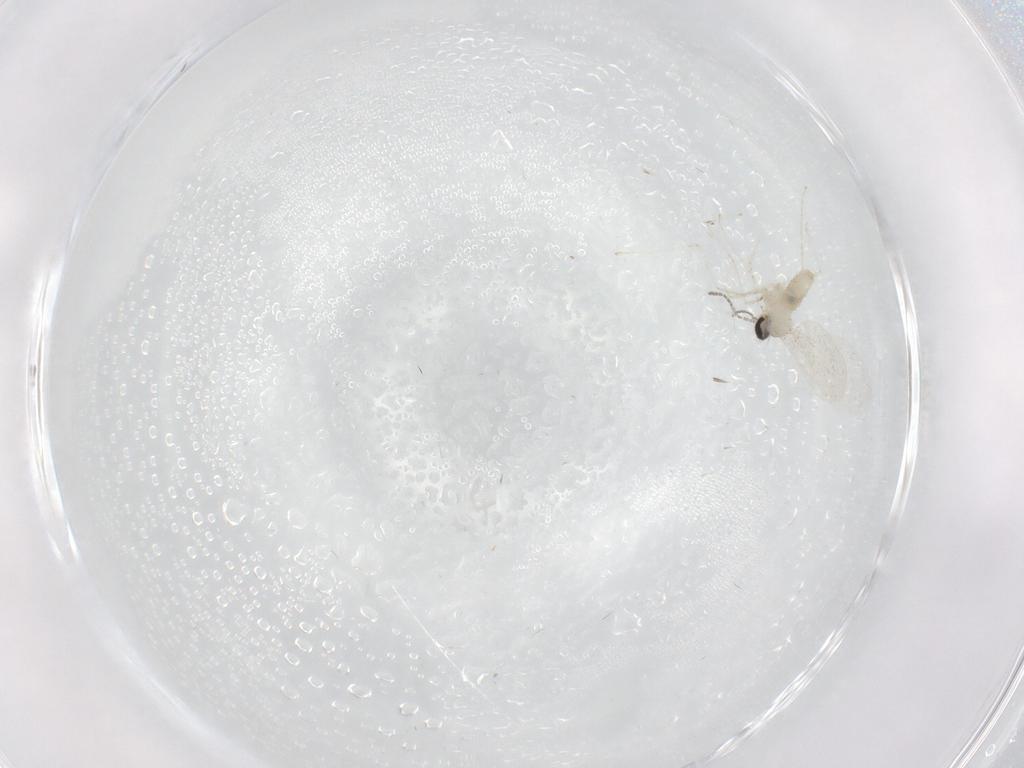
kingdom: Animalia
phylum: Arthropoda
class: Insecta
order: Diptera
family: Cecidomyiidae
